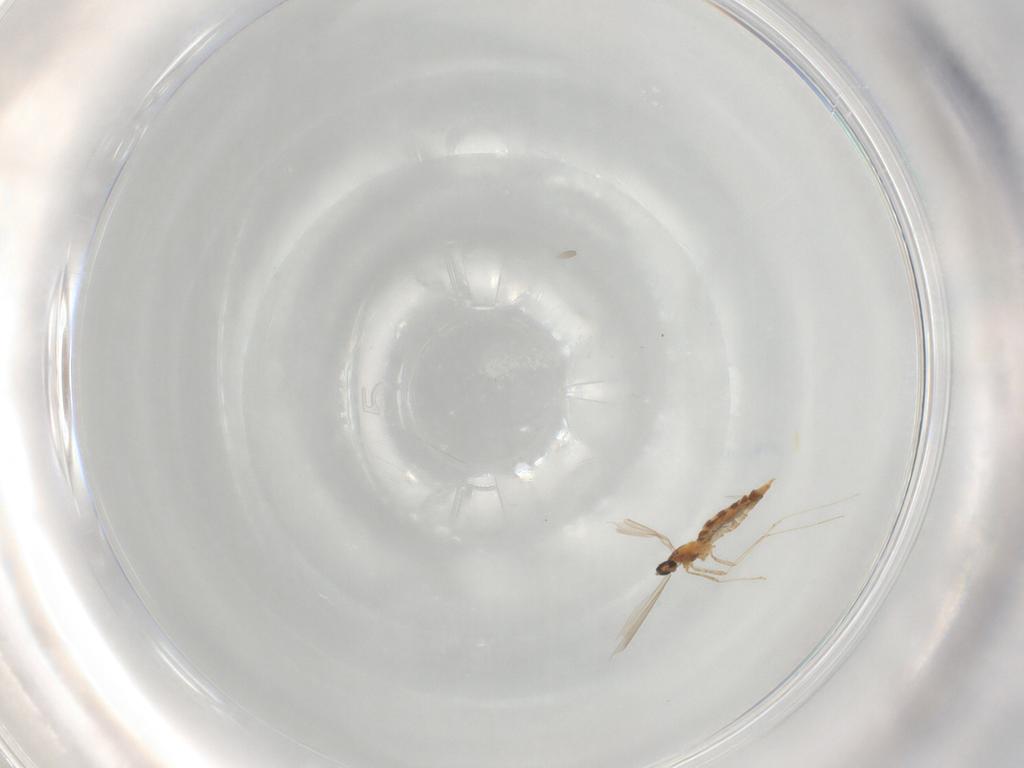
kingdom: Animalia
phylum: Arthropoda
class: Insecta
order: Diptera
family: Cecidomyiidae
